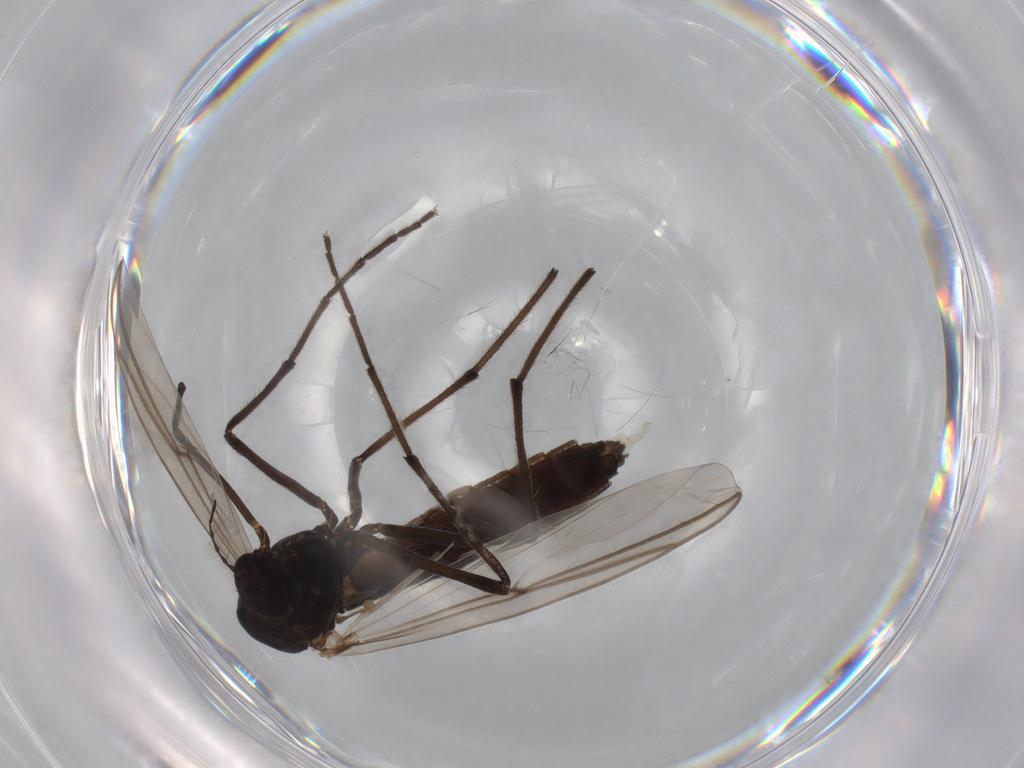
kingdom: Animalia
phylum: Arthropoda
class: Insecta
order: Diptera
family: Chironomidae
